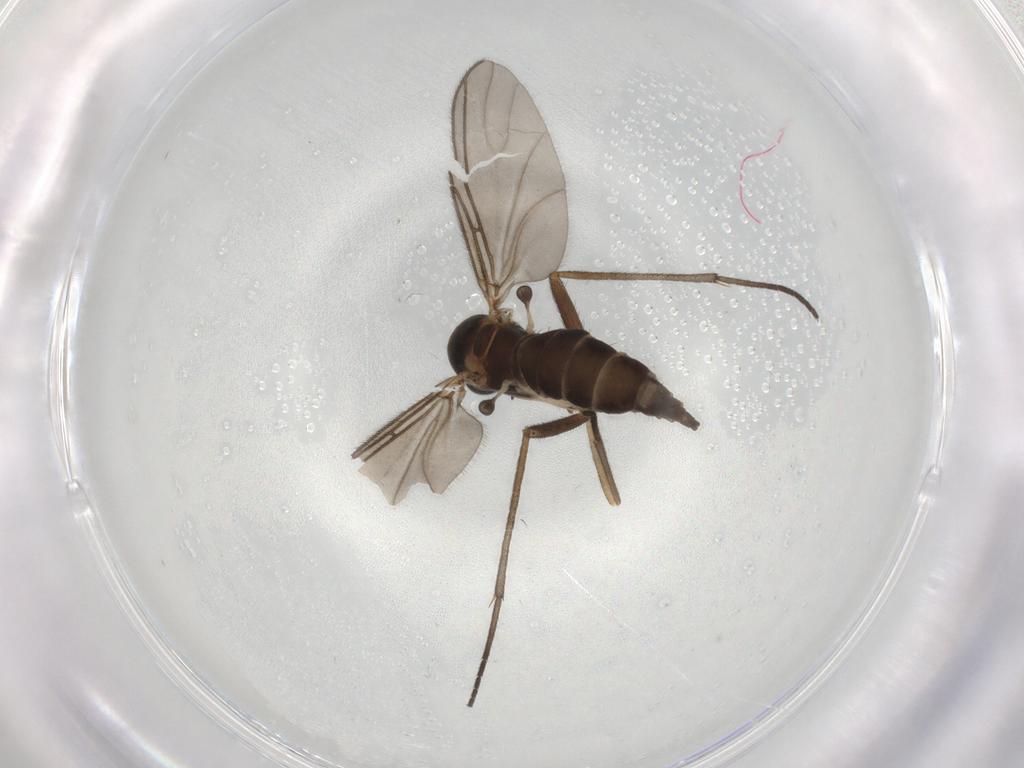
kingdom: Animalia
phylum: Arthropoda
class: Insecta
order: Diptera
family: Sciaridae
